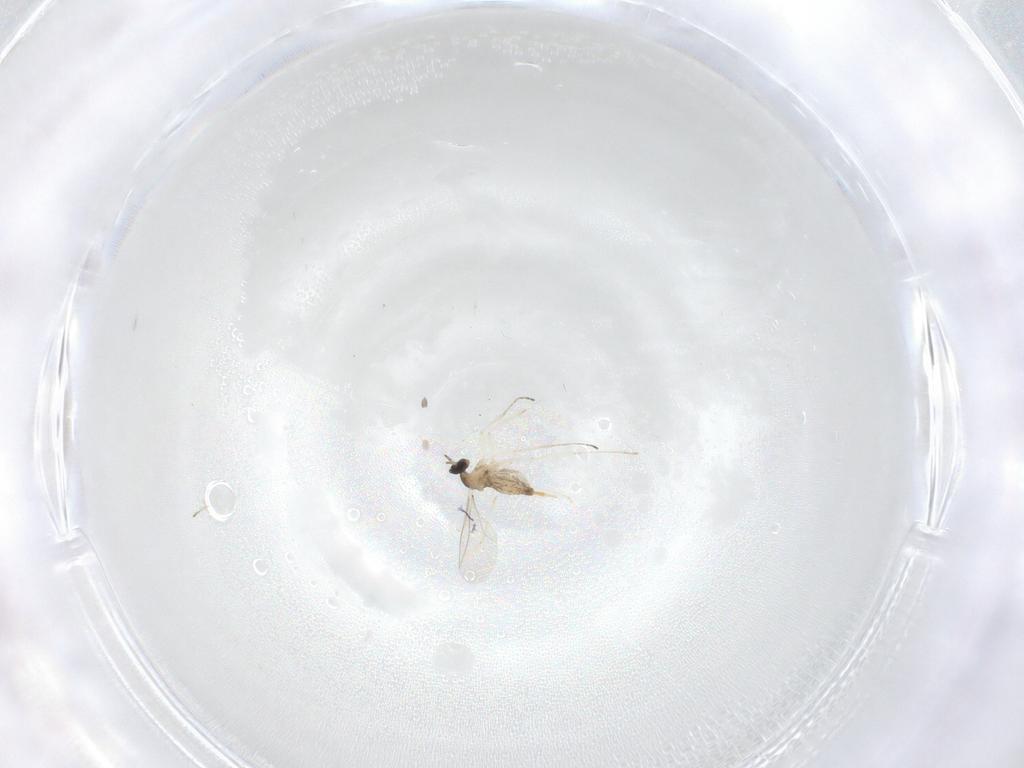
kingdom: Animalia
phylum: Arthropoda
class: Insecta
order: Diptera
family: Cecidomyiidae
